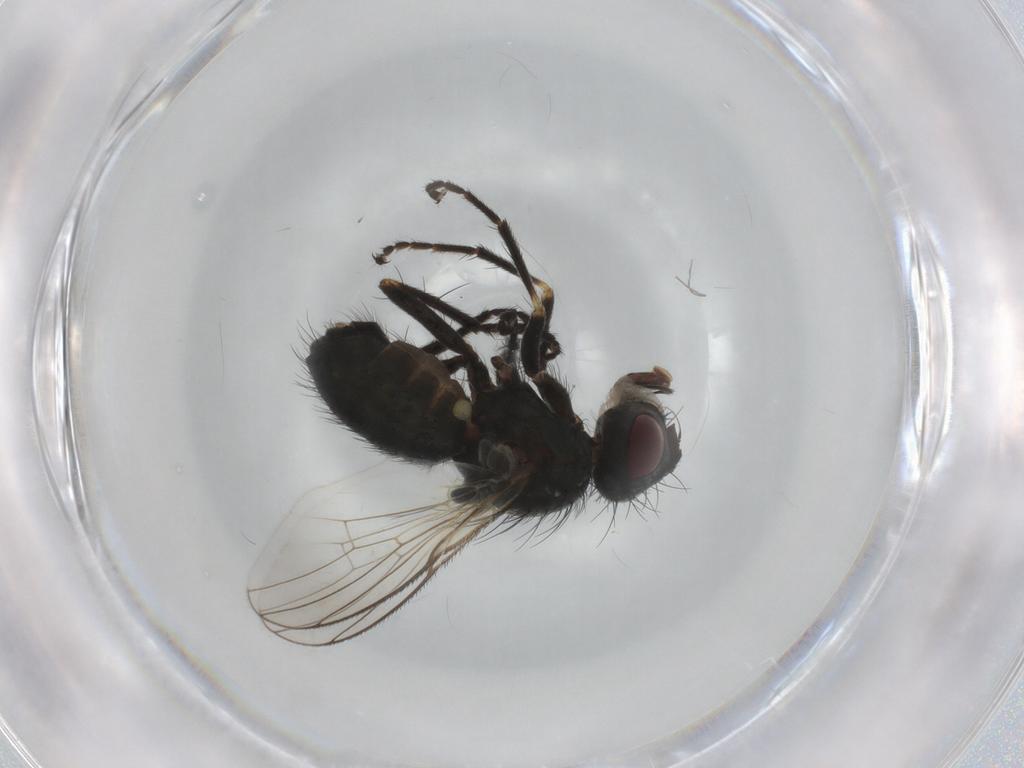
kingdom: Animalia
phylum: Arthropoda
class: Insecta
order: Diptera
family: Muscidae
